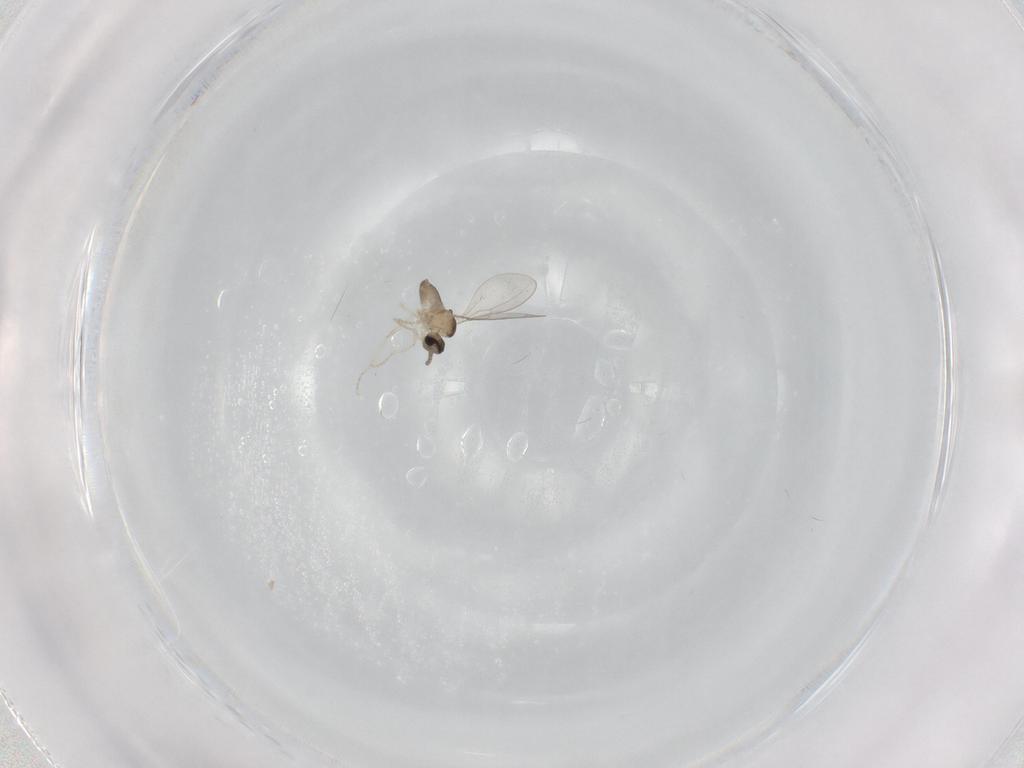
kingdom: Animalia
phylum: Arthropoda
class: Insecta
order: Diptera
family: Cecidomyiidae
